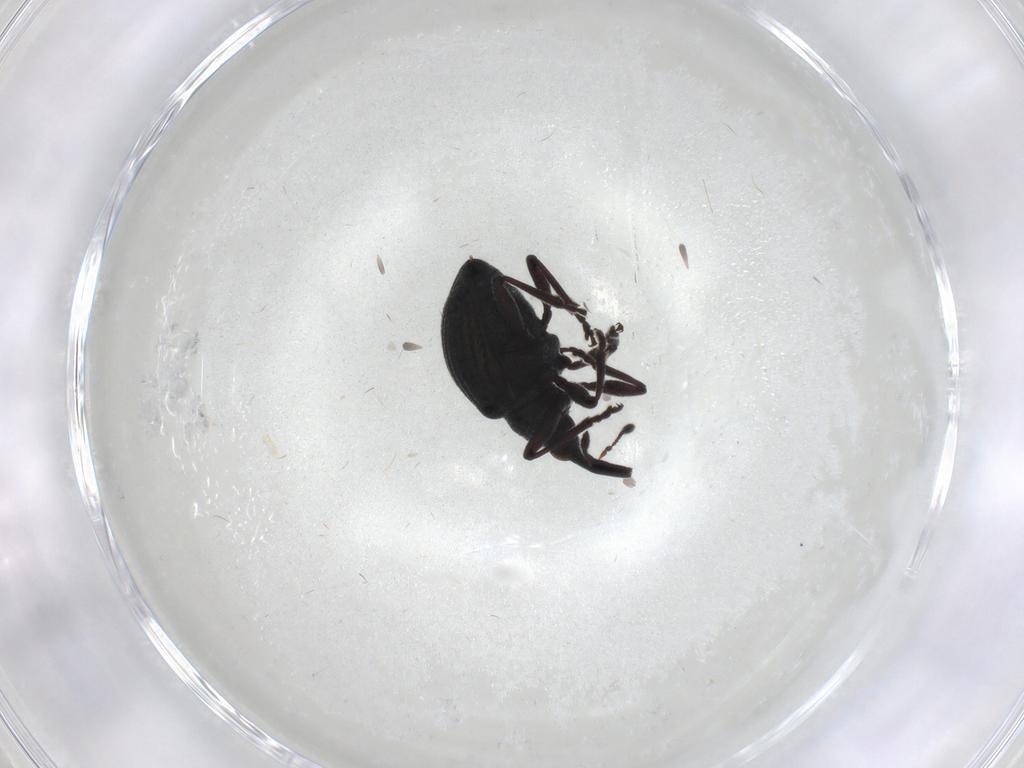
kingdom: Animalia
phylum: Arthropoda
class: Insecta
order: Coleoptera
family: Brentidae
